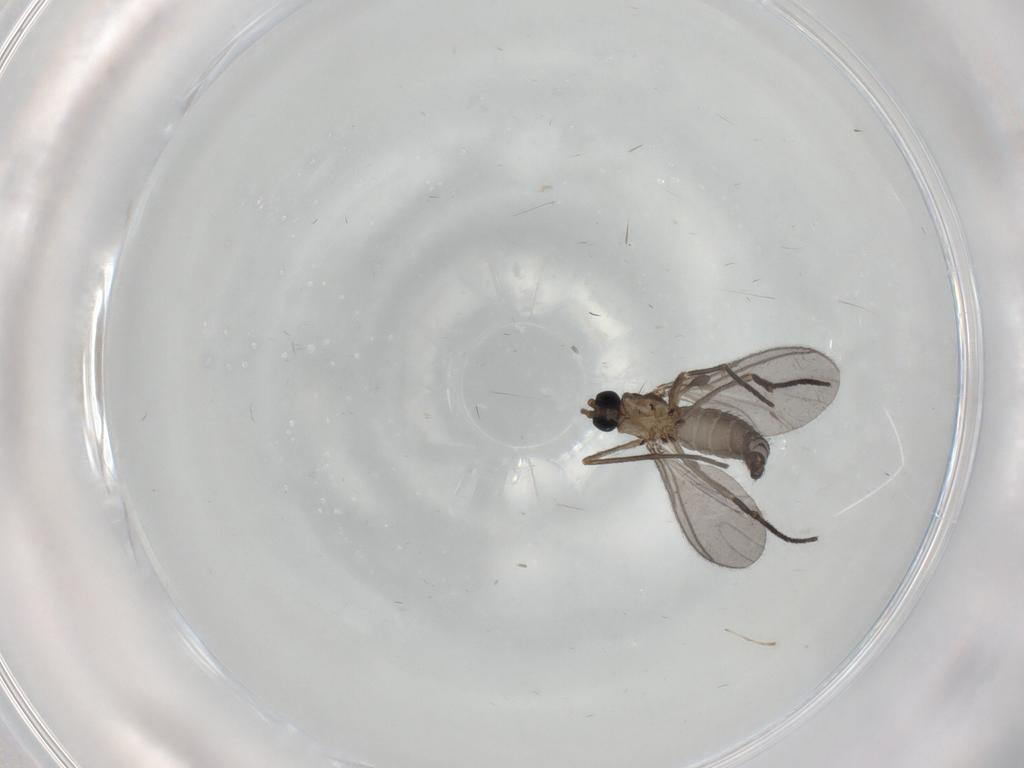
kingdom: Animalia
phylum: Arthropoda
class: Insecta
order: Diptera
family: Sciaridae
